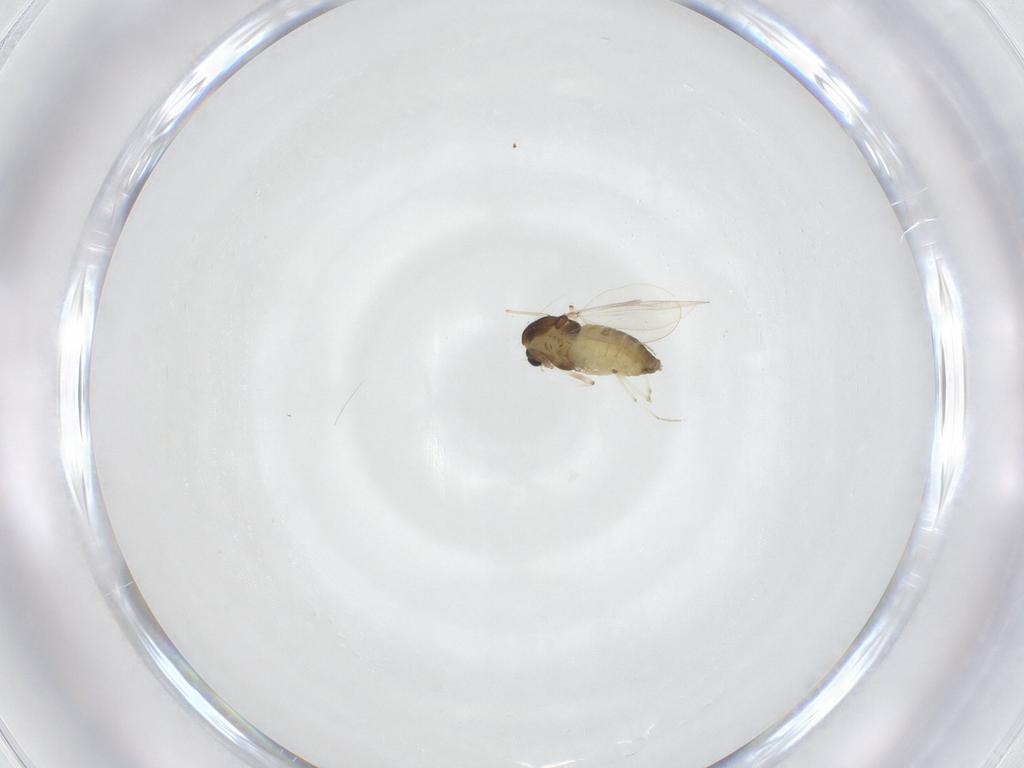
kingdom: Animalia
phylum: Arthropoda
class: Insecta
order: Diptera
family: Chironomidae
